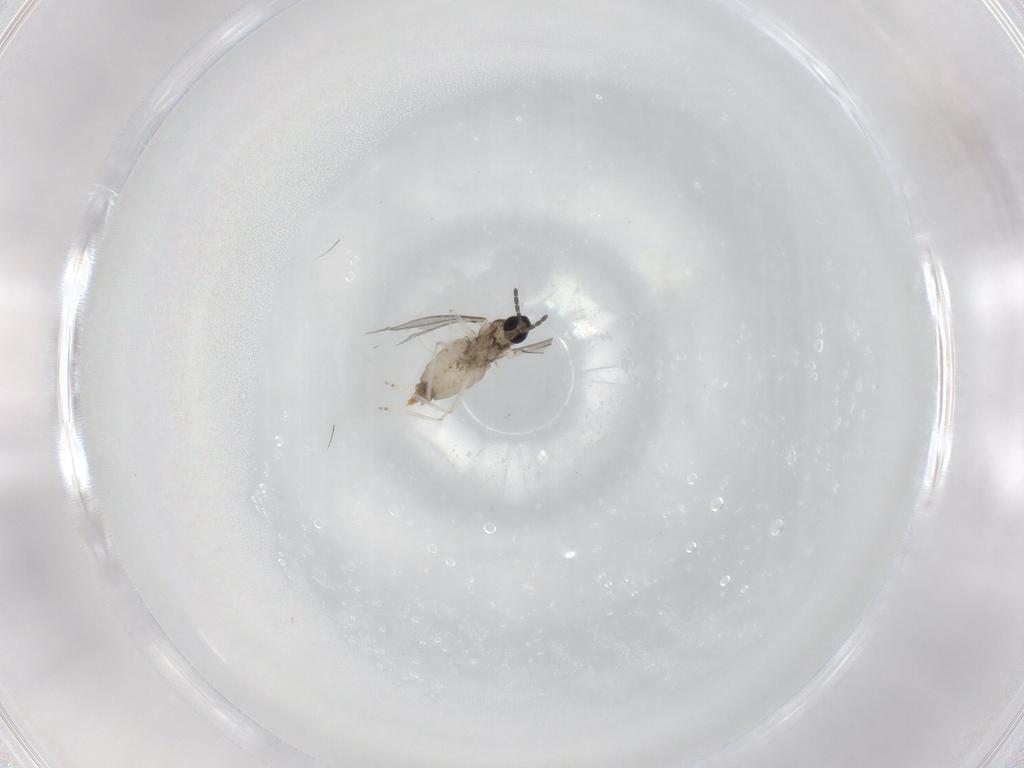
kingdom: Animalia
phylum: Arthropoda
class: Insecta
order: Diptera
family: Cecidomyiidae
